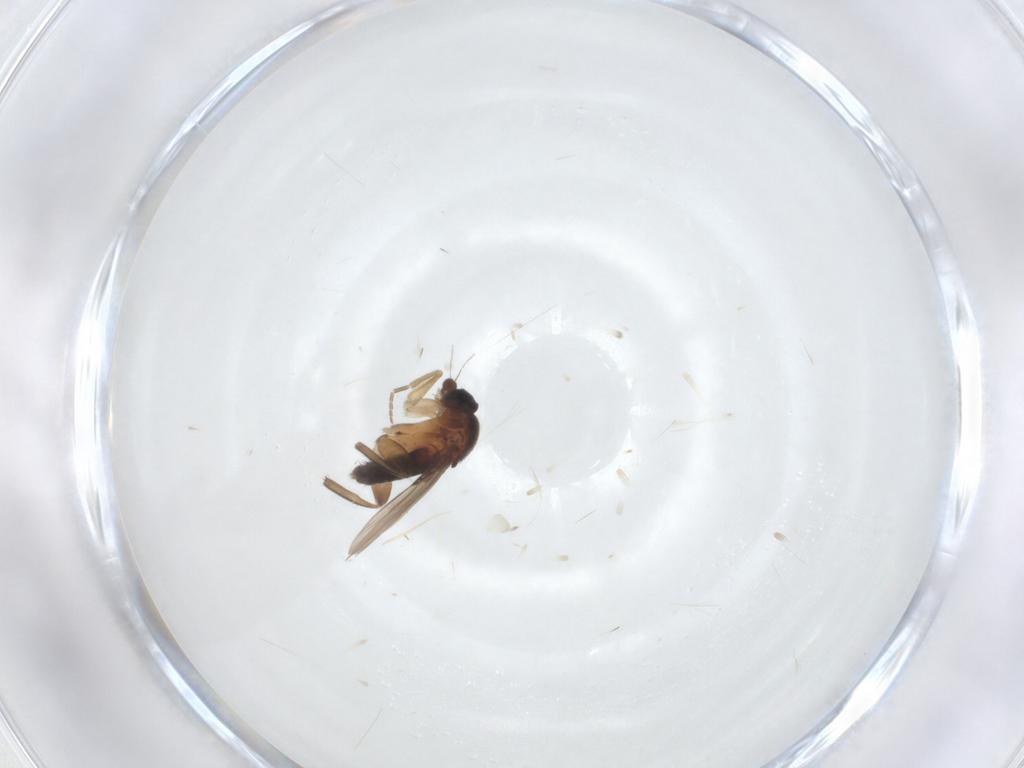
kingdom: Animalia
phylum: Arthropoda
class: Insecta
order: Diptera
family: Phoridae
